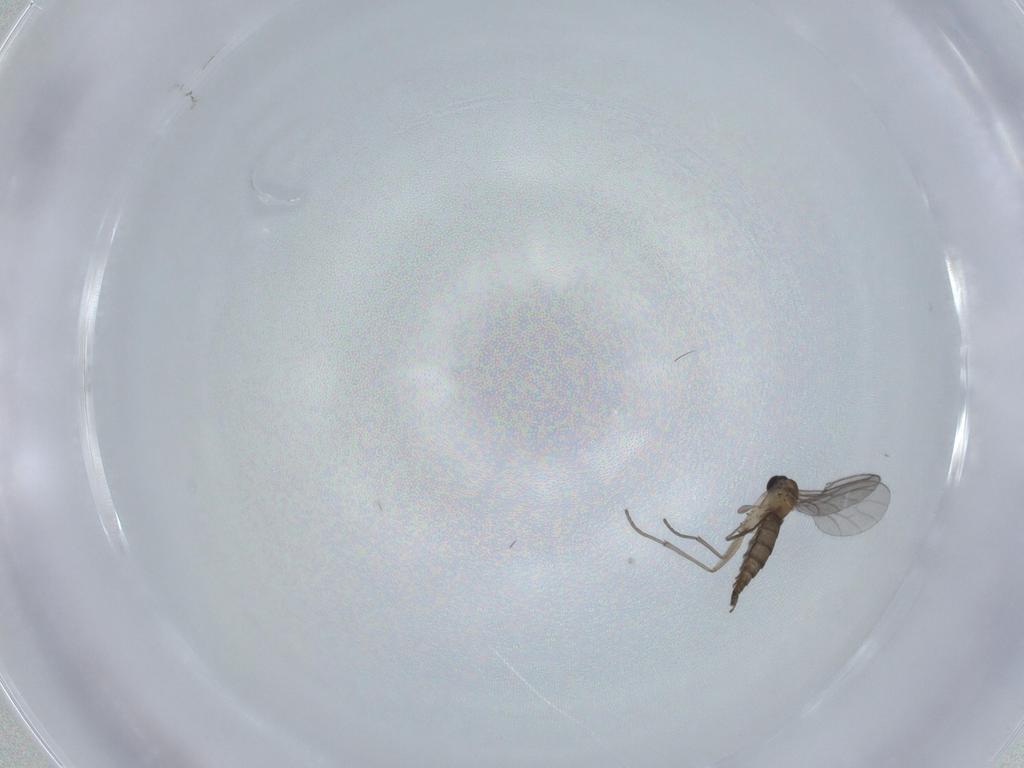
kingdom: Animalia
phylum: Arthropoda
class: Insecta
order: Diptera
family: Sciaridae
